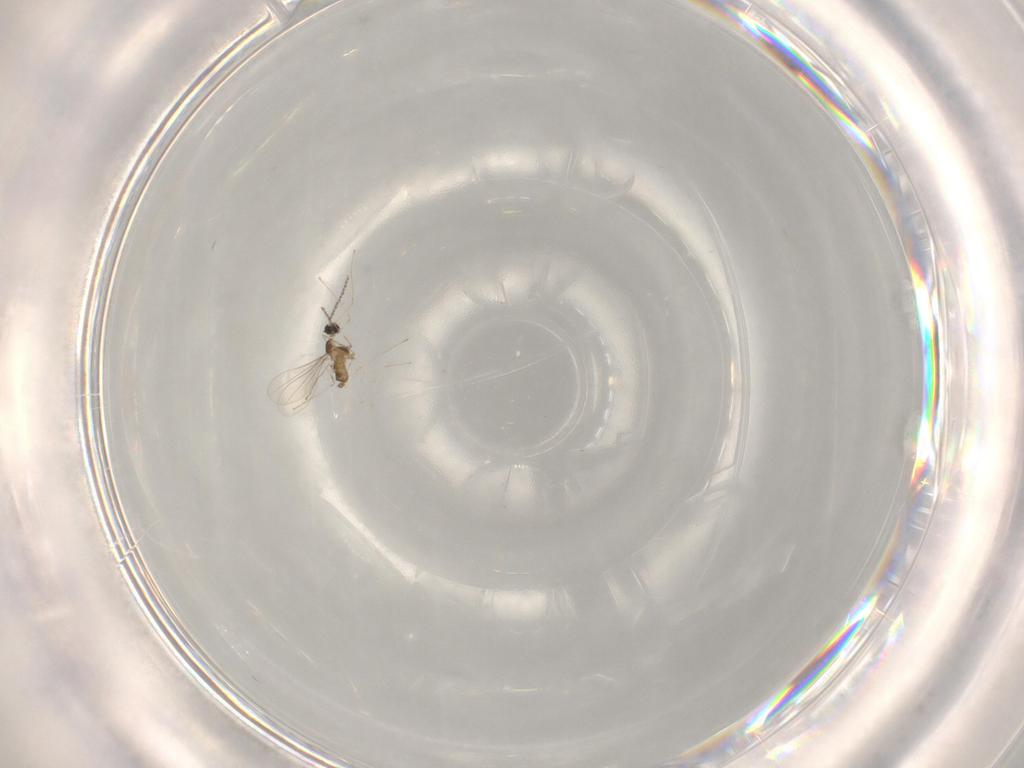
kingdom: Animalia
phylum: Arthropoda
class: Insecta
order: Diptera
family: Cecidomyiidae
